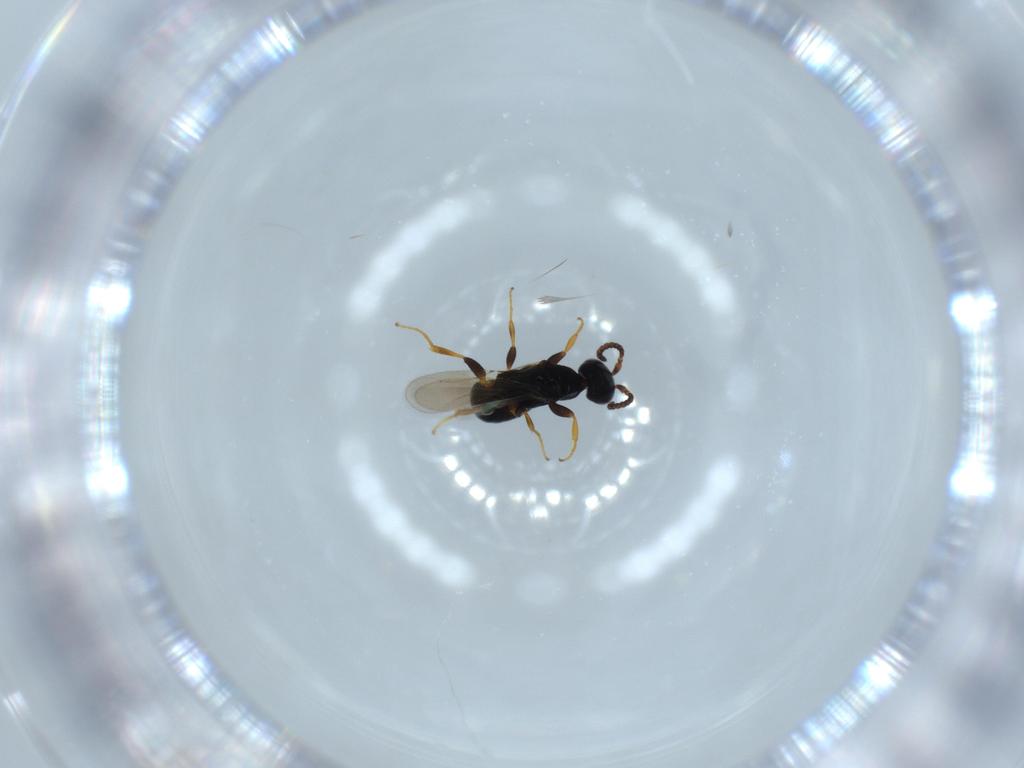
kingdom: Animalia
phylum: Arthropoda
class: Insecta
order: Hymenoptera
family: Bethylidae
